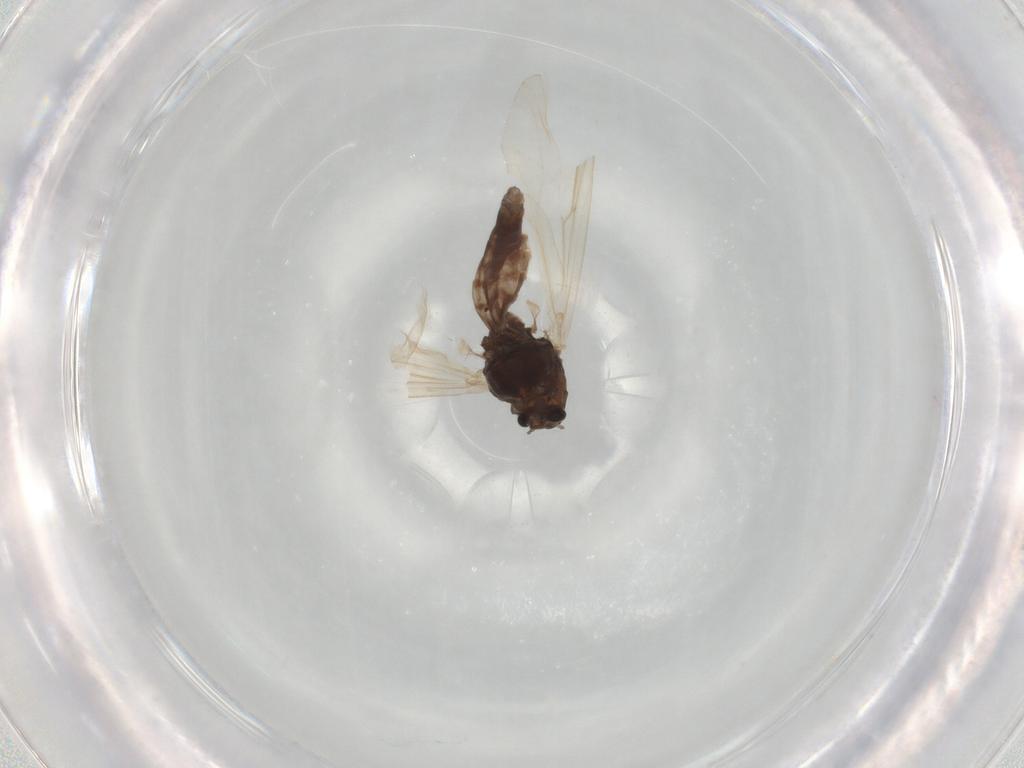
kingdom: Animalia
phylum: Arthropoda
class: Insecta
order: Diptera
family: Chironomidae
